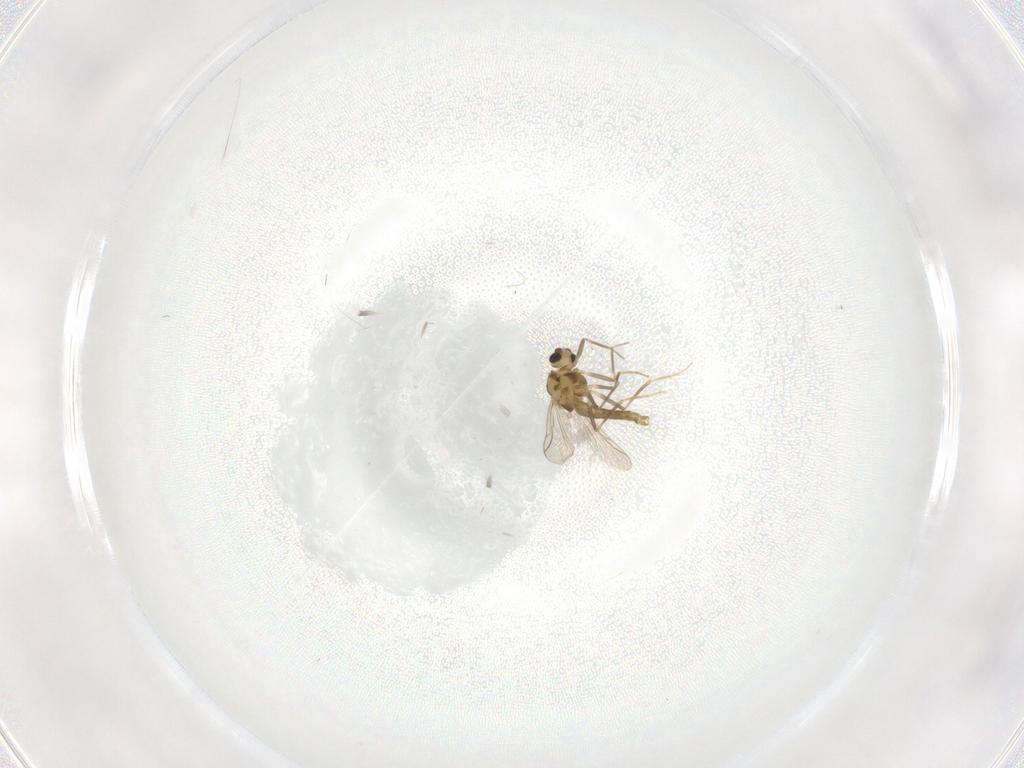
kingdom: Animalia
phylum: Arthropoda
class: Insecta
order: Diptera
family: Chironomidae
